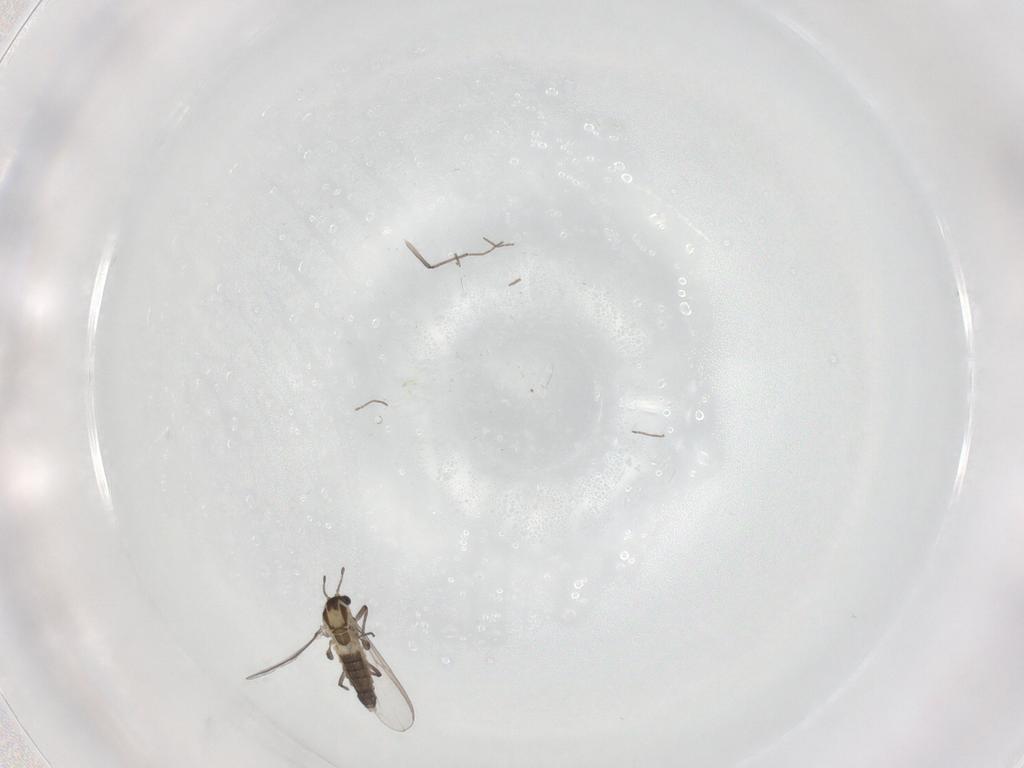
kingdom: Animalia
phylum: Arthropoda
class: Insecta
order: Diptera
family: Chironomidae
